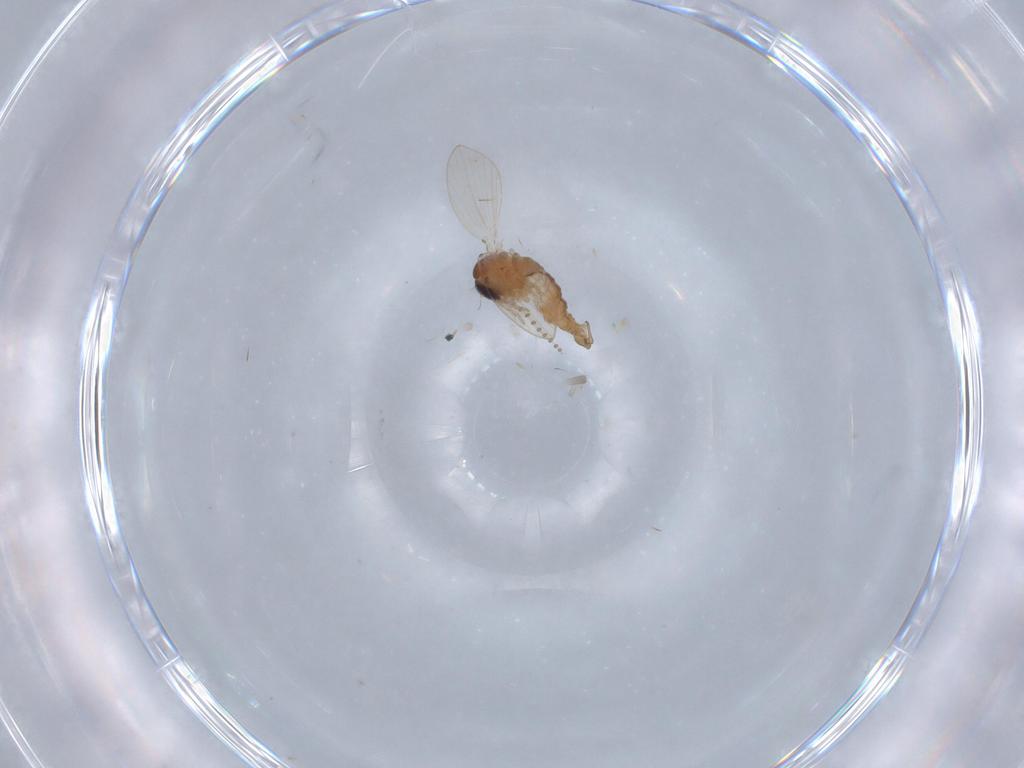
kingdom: Animalia
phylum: Arthropoda
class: Insecta
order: Diptera
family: Psychodidae
